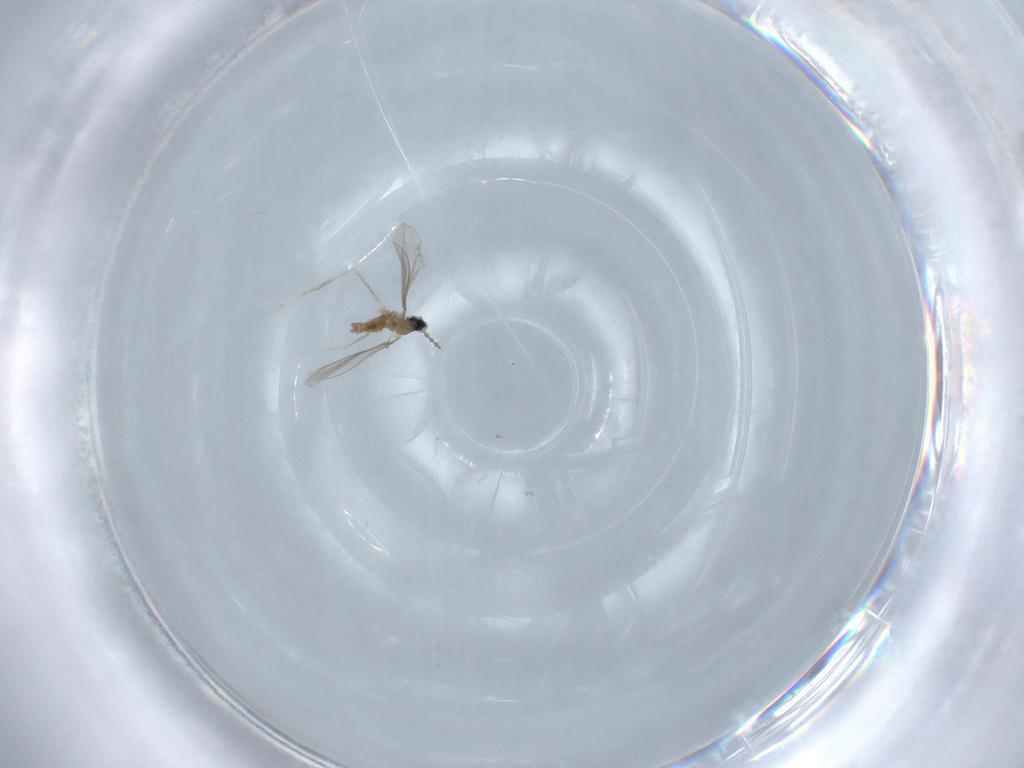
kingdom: Animalia
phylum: Arthropoda
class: Insecta
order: Diptera
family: Cecidomyiidae
